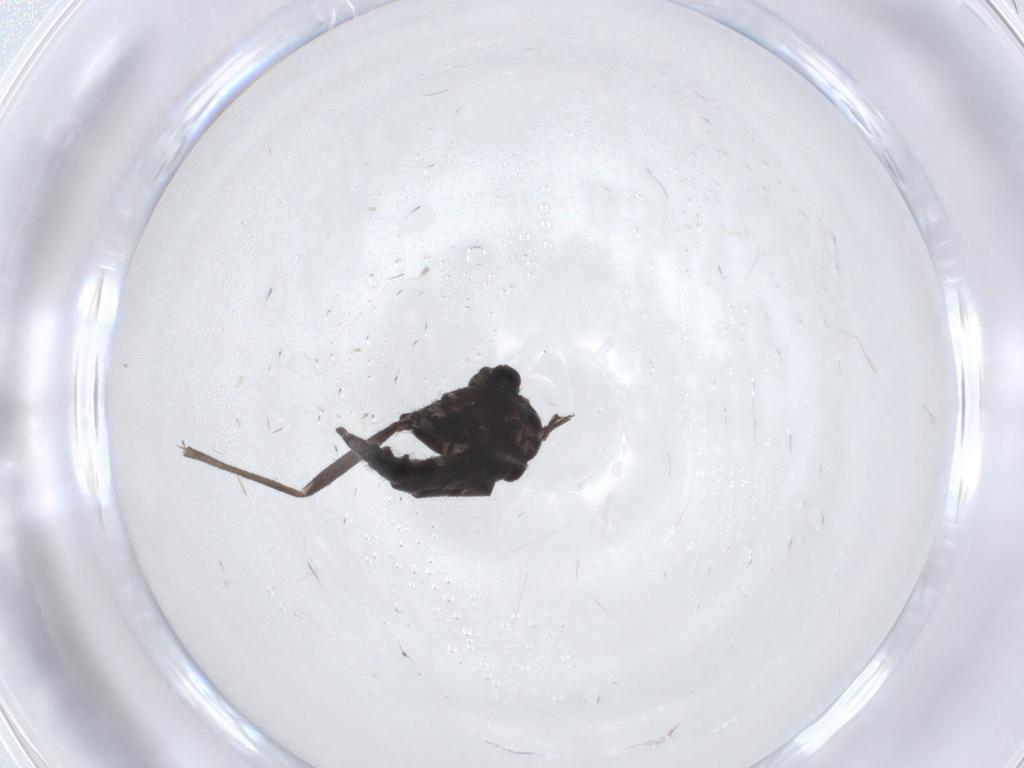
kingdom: Animalia
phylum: Arthropoda
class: Insecta
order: Diptera
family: Sciaridae
